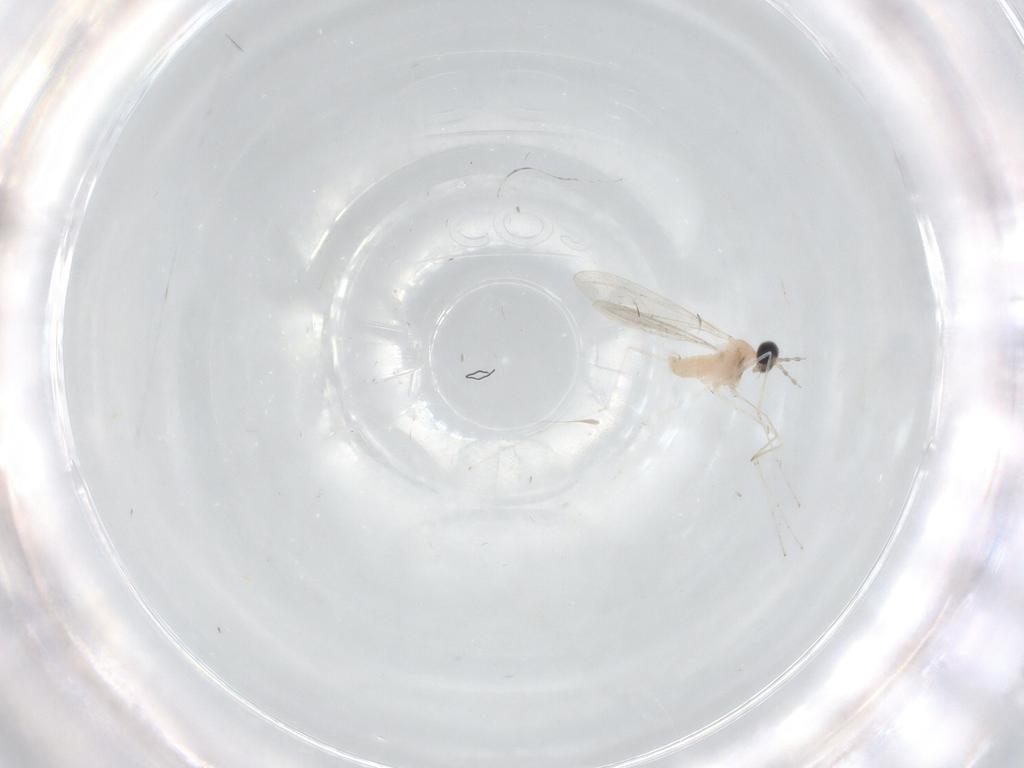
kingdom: Animalia
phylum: Arthropoda
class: Insecta
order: Diptera
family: Cecidomyiidae
